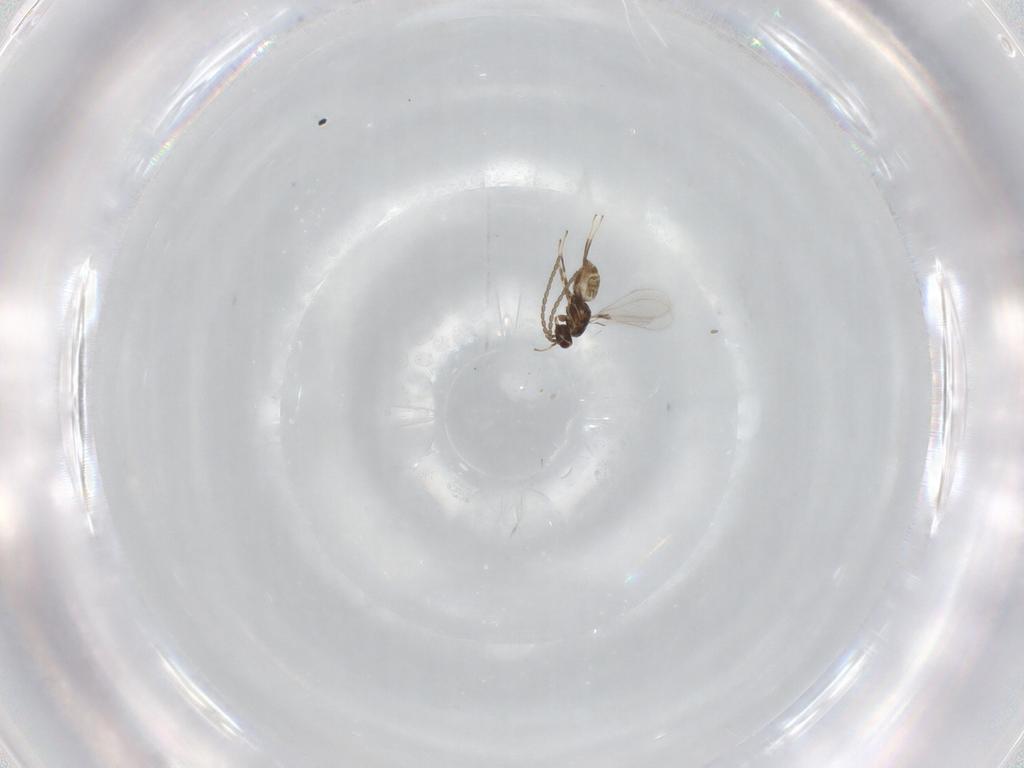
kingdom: Animalia
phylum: Arthropoda
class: Insecta
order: Hymenoptera
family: Mymaridae
